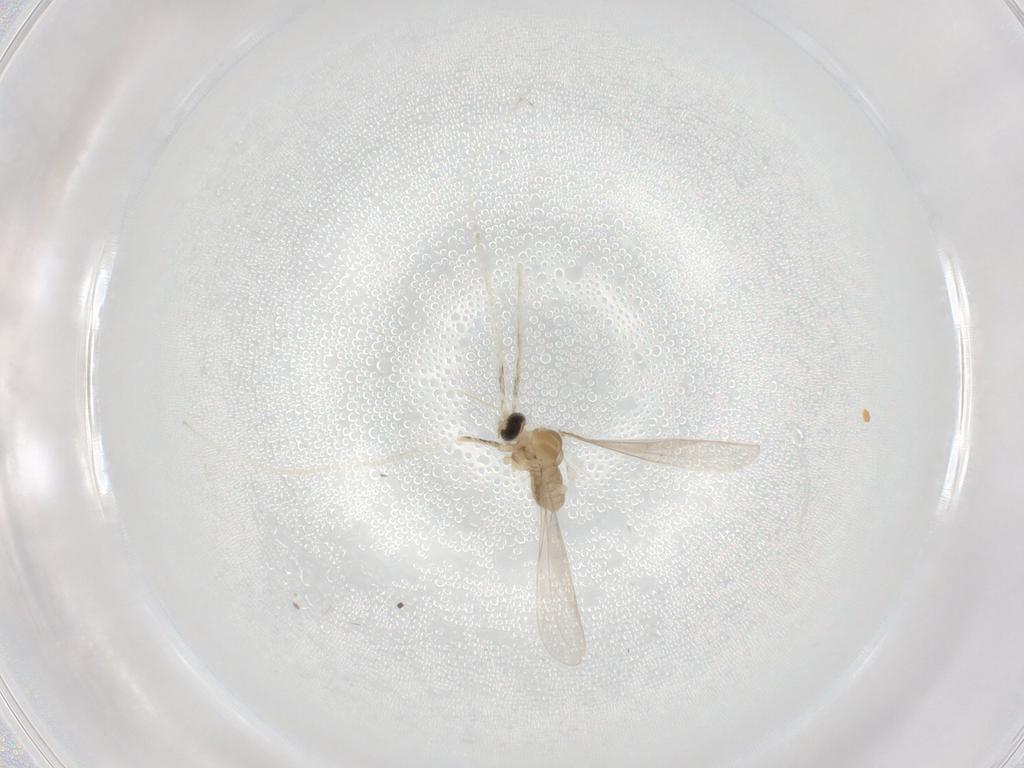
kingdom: Animalia
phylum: Arthropoda
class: Insecta
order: Diptera
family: Cecidomyiidae
